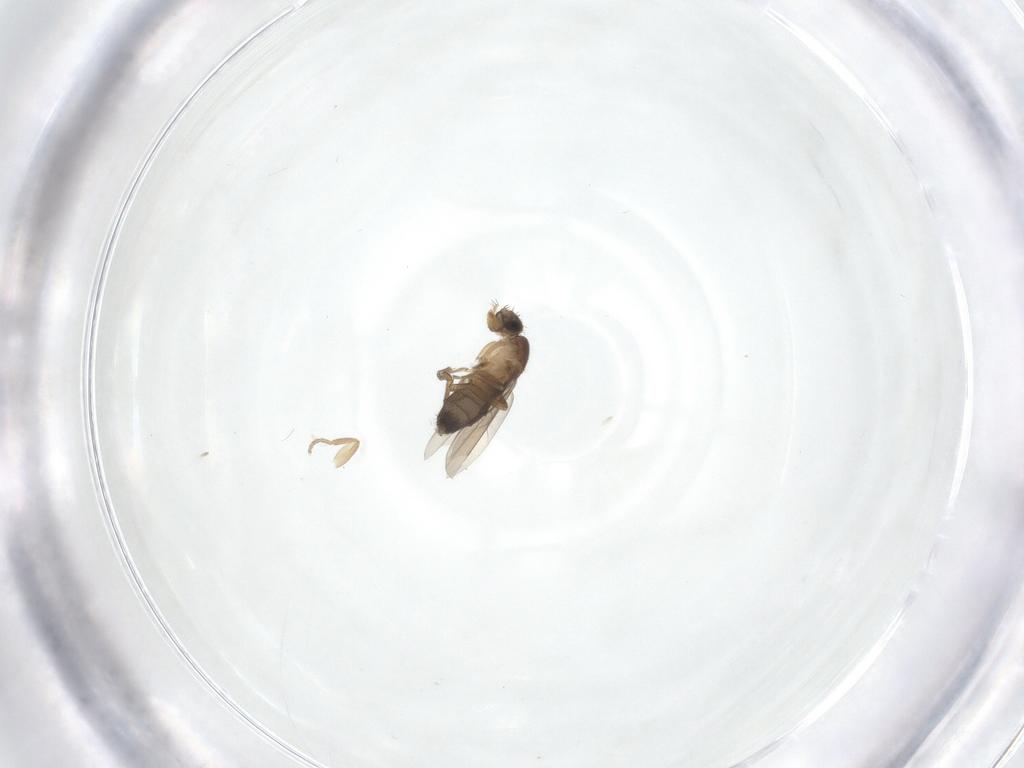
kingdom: Animalia
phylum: Arthropoda
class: Insecta
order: Diptera
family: Phoridae
